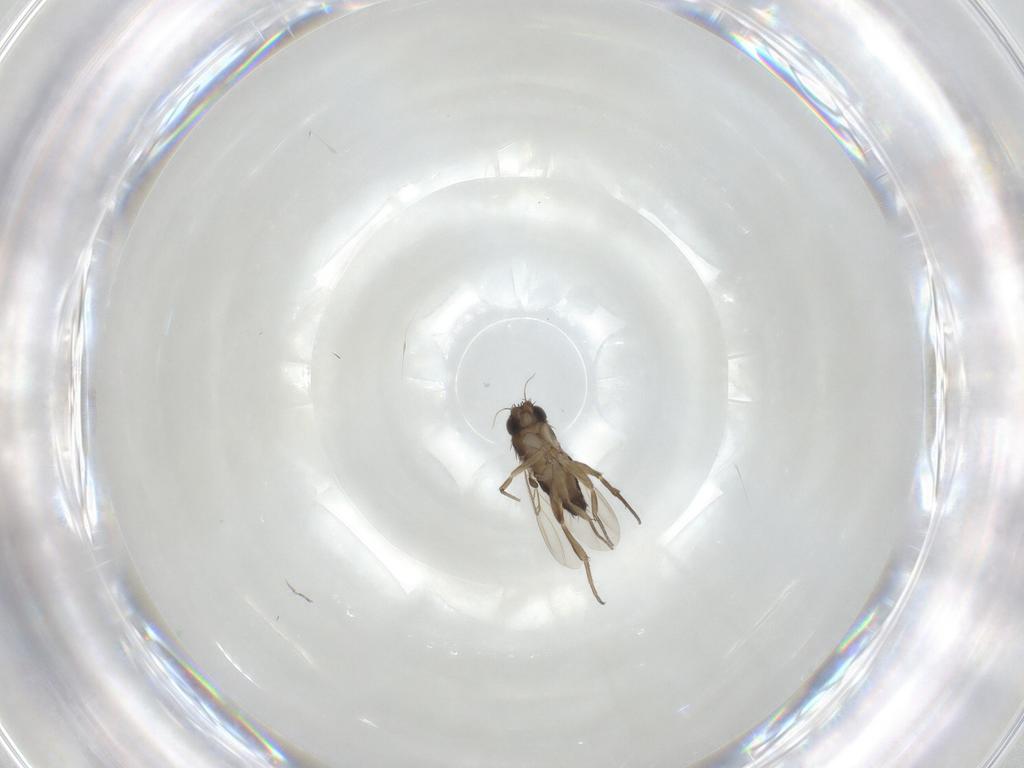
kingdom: Animalia
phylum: Arthropoda
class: Insecta
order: Diptera
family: Phoridae
